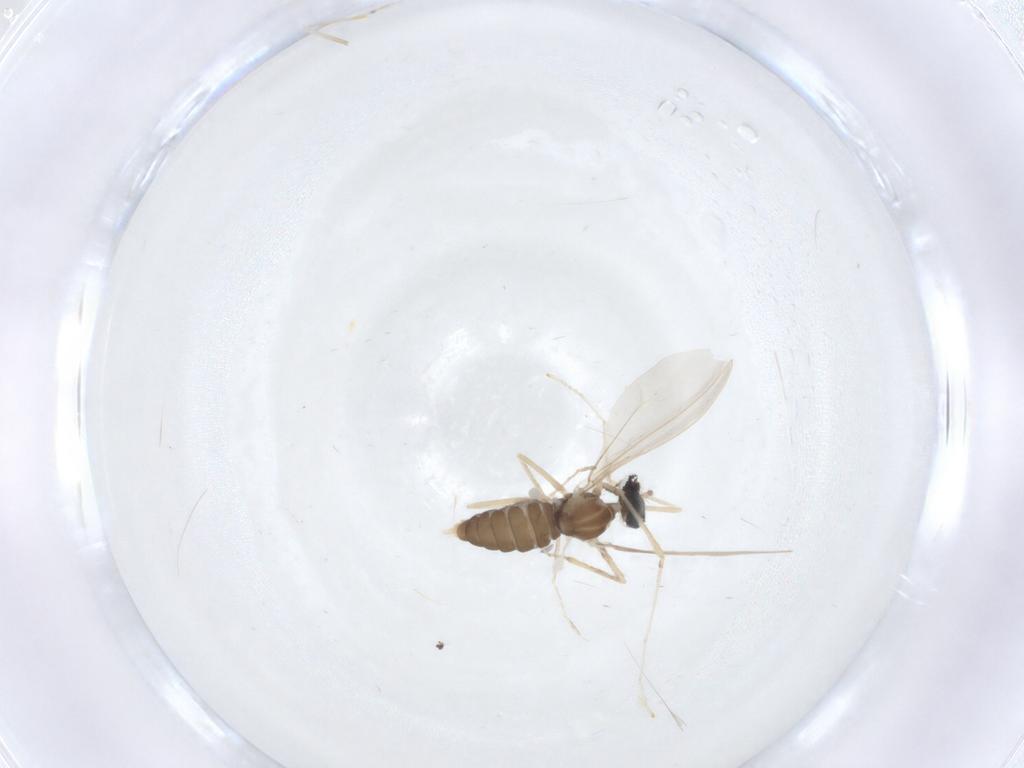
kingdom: Animalia
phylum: Arthropoda
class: Insecta
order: Diptera
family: Cecidomyiidae
